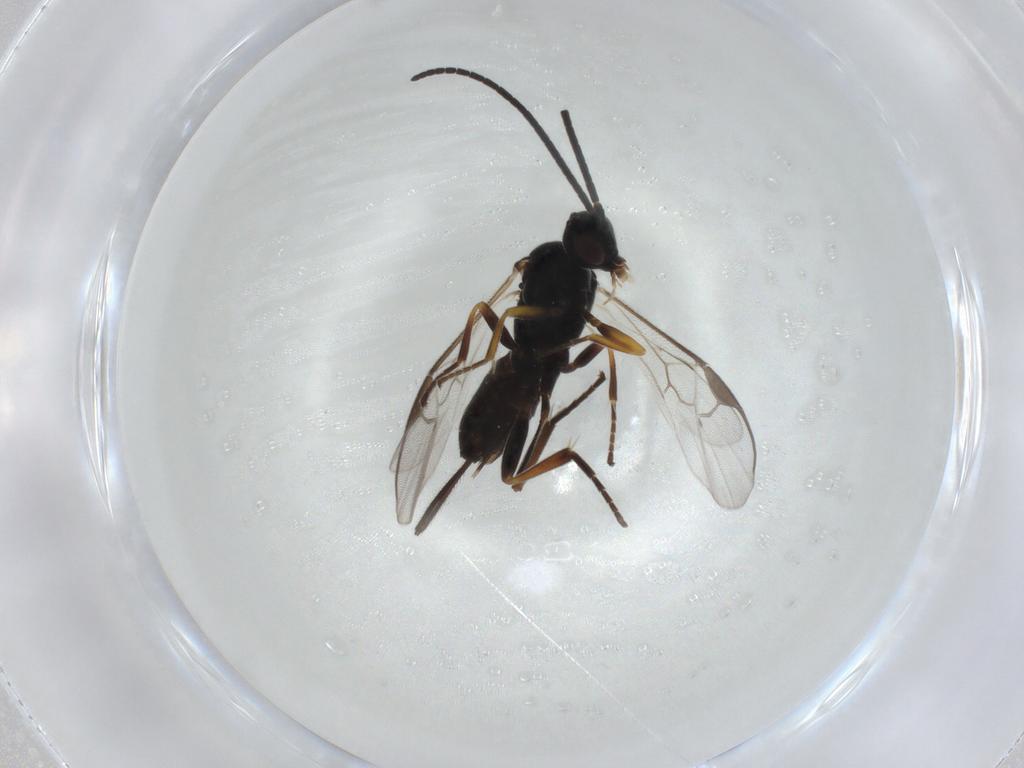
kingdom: Animalia
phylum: Arthropoda
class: Insecta
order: Hymenoptera
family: Braconidae
